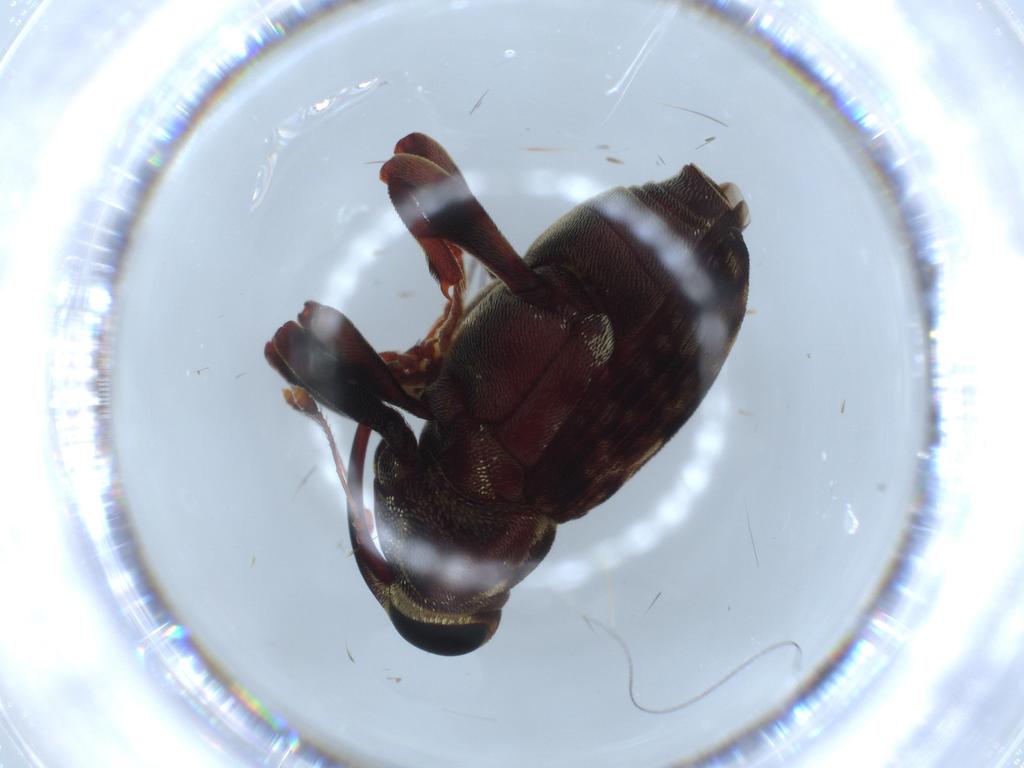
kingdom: Animalia
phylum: Arthropoda
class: Insecta
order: Coleoptera
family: Coccinellidae
